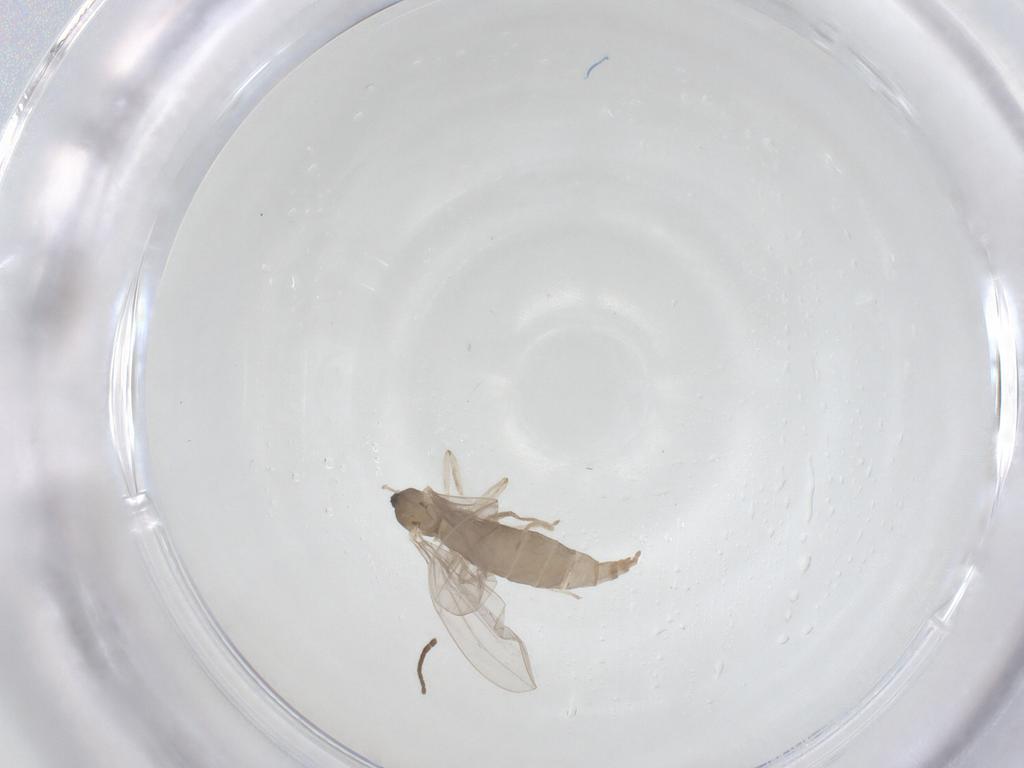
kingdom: Animalia
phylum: Arthropoda
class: Insecta
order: Diptera
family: Cecidomyiidae
